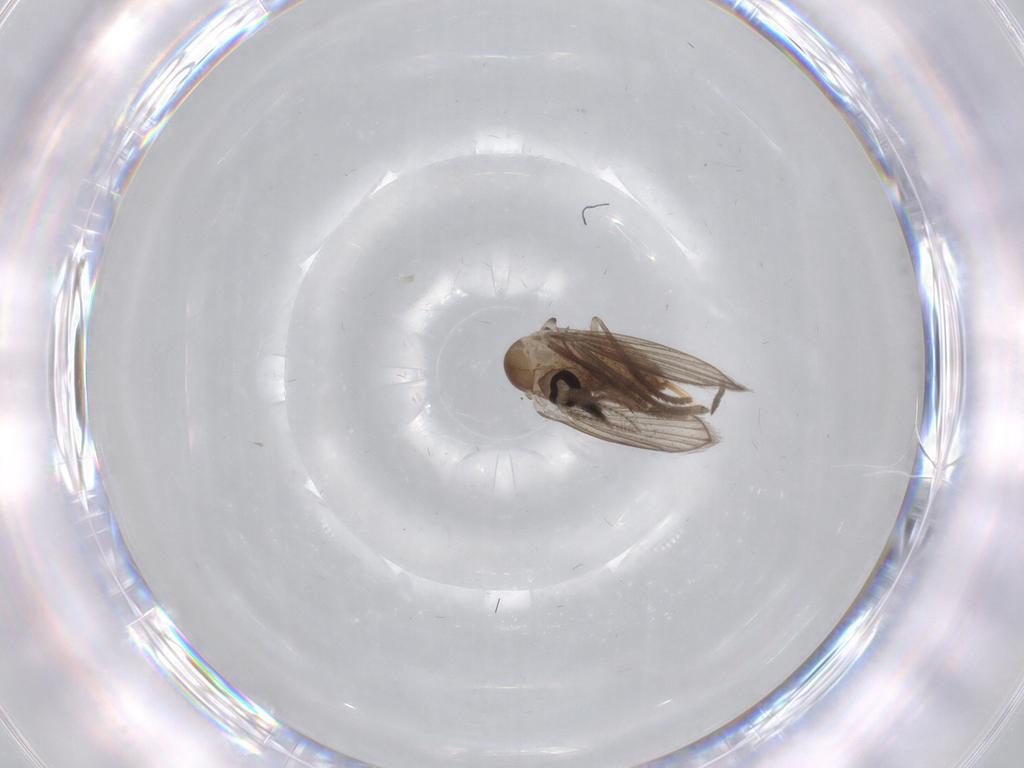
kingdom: Animalia
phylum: Arthropoda
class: Insecta
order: Diptera
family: Psychodidae
